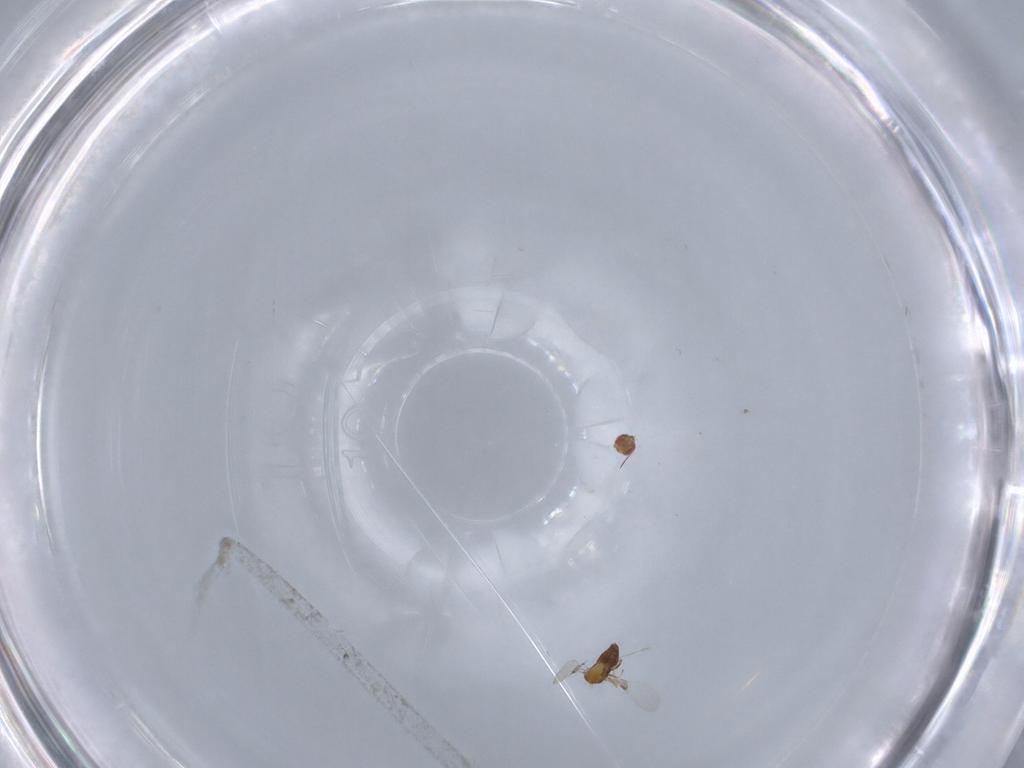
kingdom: Animalia
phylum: Arthropoda
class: Insecta
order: Hymenoptera
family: Trichogrammatidae
